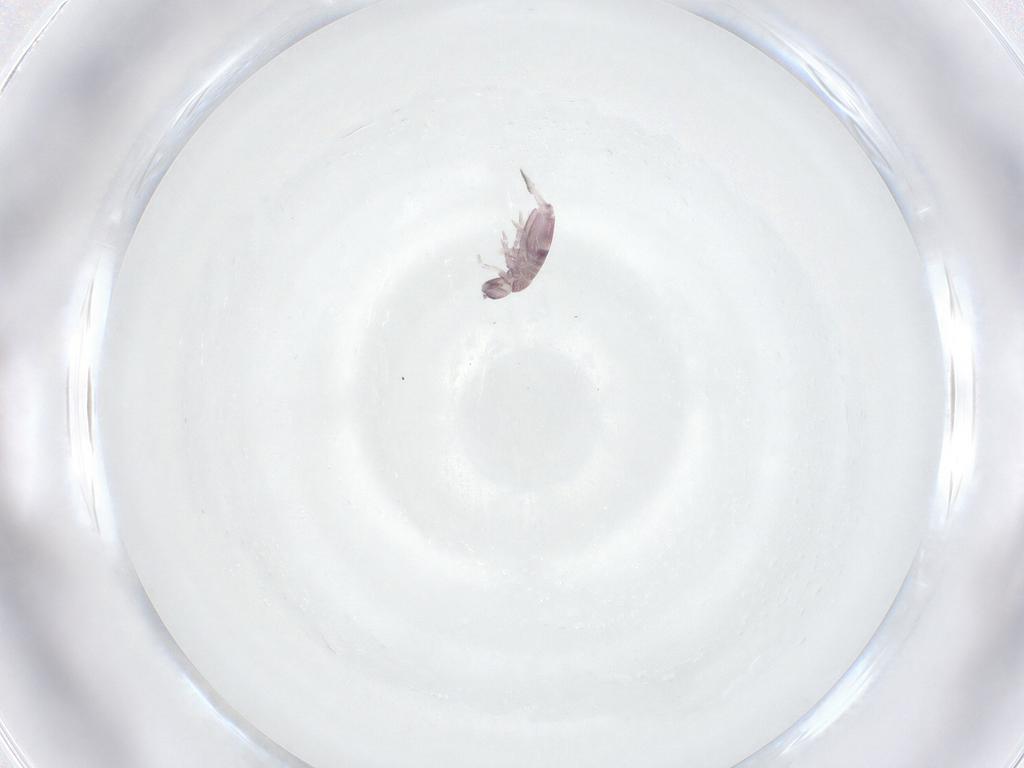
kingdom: Animalia
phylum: Arthropoda
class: Collembola
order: Entomobryomorpha
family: Entomobryidae
